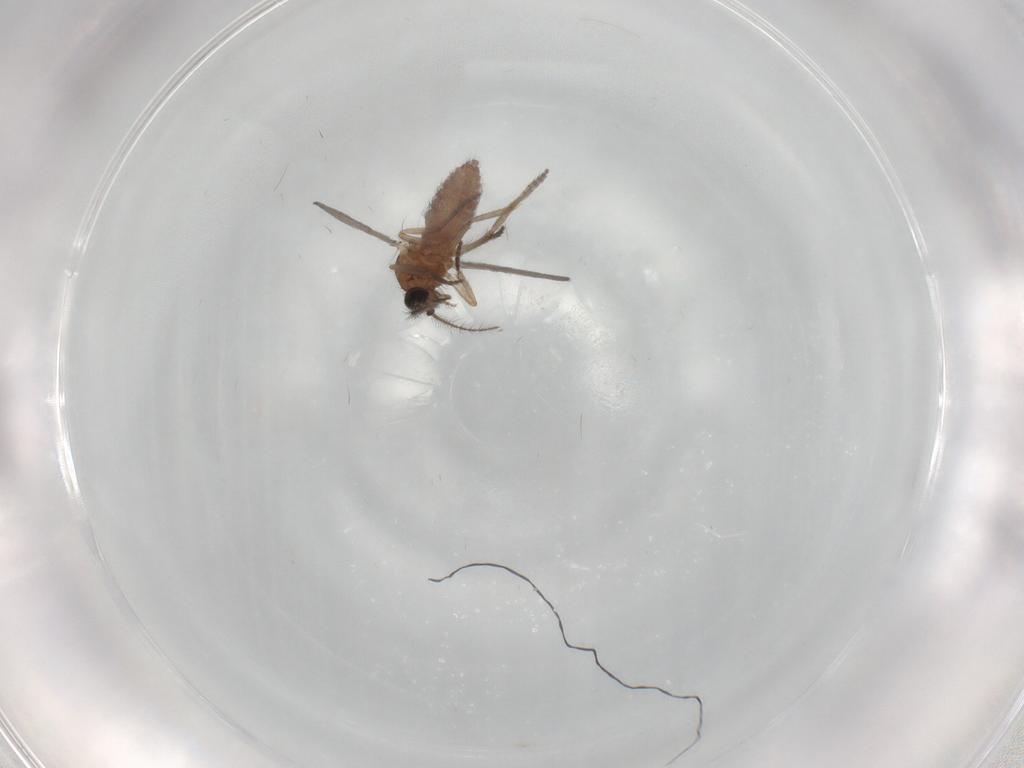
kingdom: Animalia
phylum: Arthropoda
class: Insecta
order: Diptera
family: Ceratopogonidae
